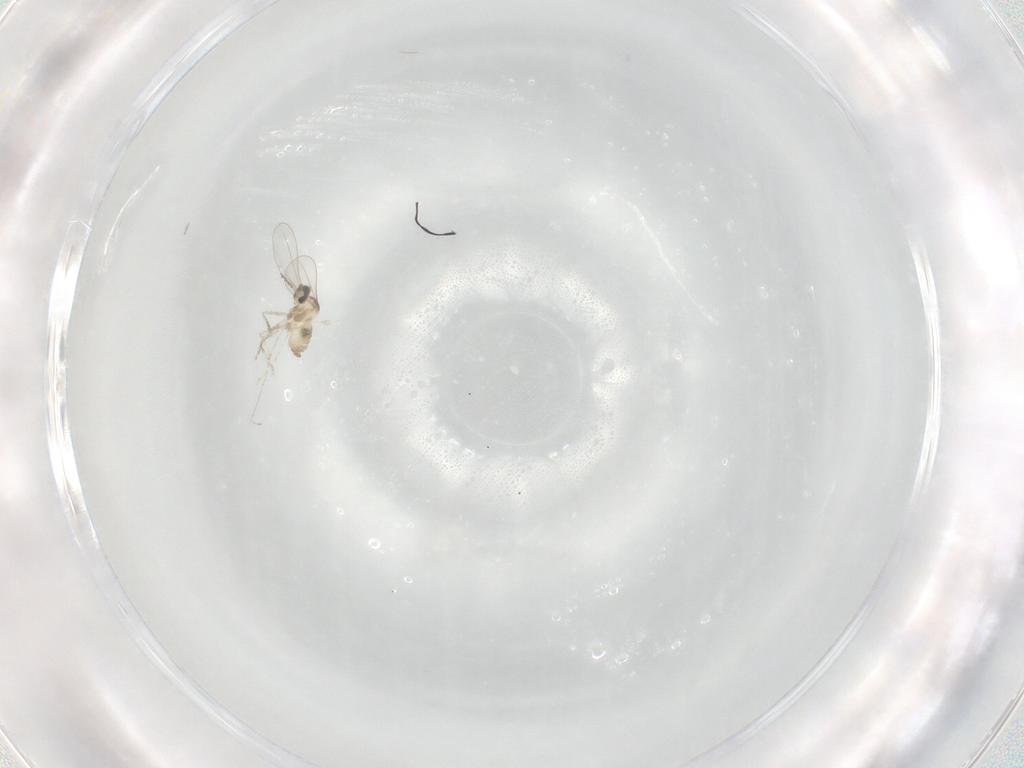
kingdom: Animalia
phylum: Arthropoda
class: Insecta
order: Diptera
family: Cecidomyiidae
